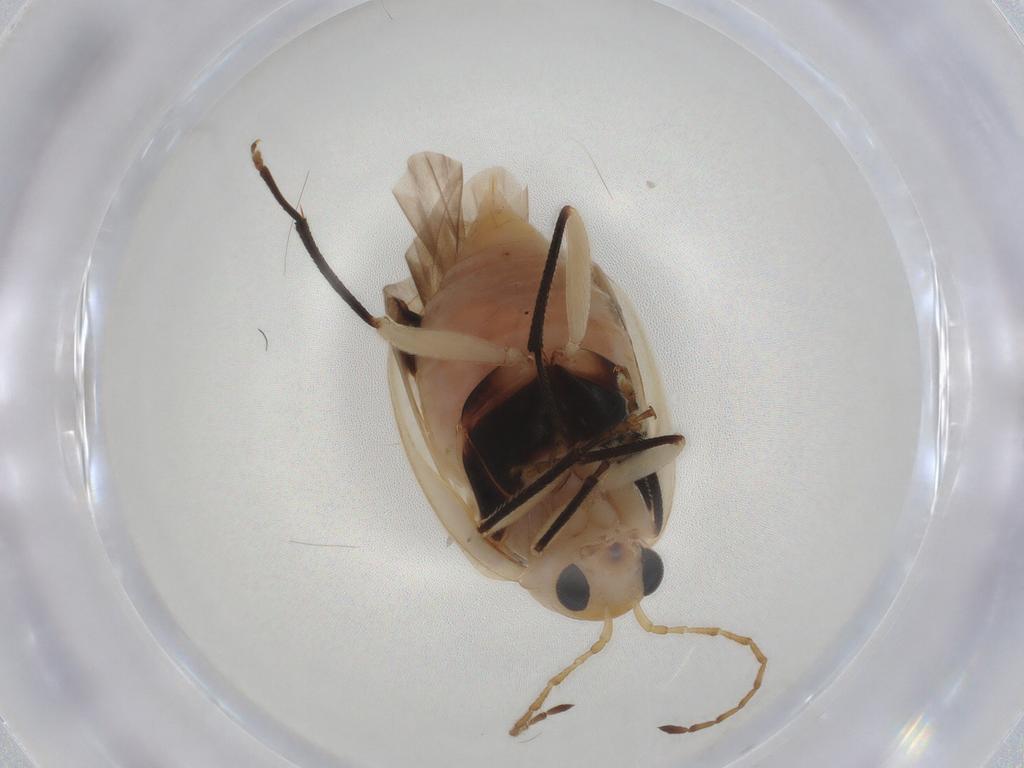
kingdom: Animalia
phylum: Arthropoda
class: Insecta
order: Coleoptera
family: Chrysomelidae
